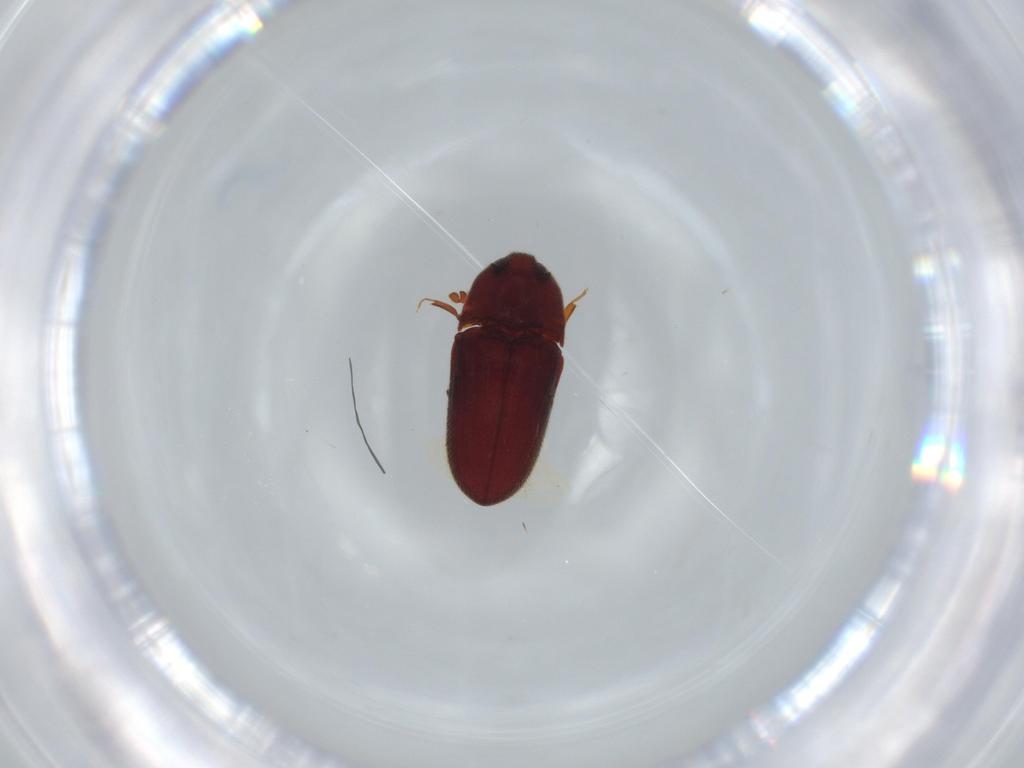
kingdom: Animalia
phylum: Arthropoda
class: Insecta
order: Coleoptera
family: Throscidae
